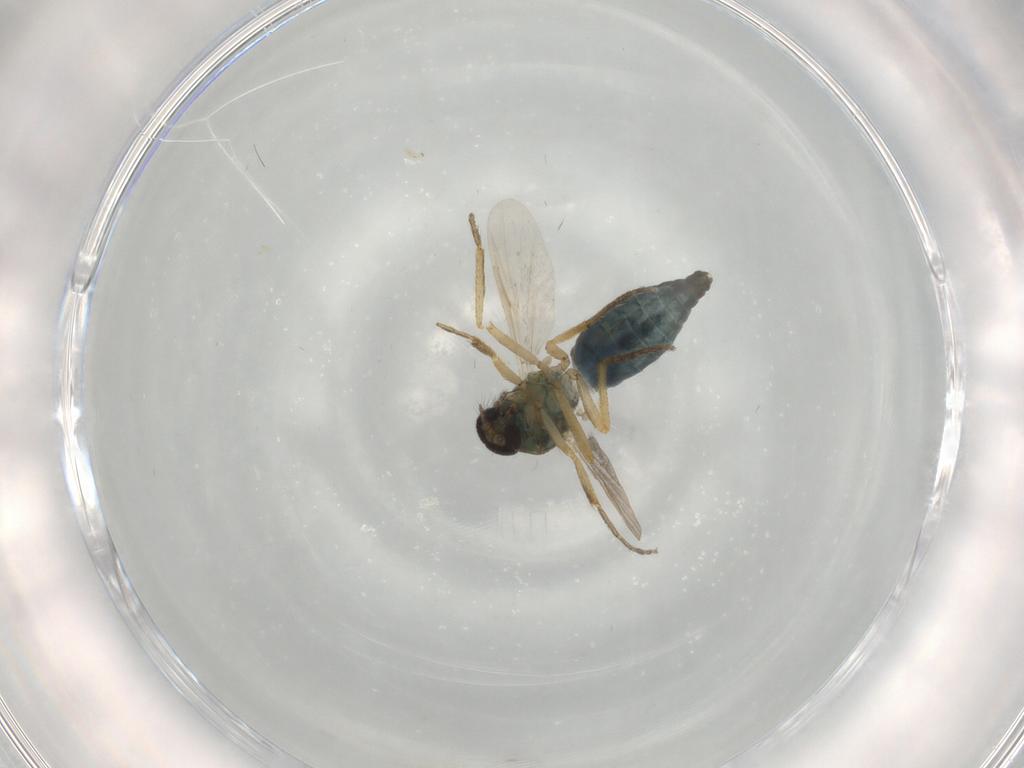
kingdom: Animalia
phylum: Arthropoda
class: Insecta
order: Diptera
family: Ceratopogonidae
